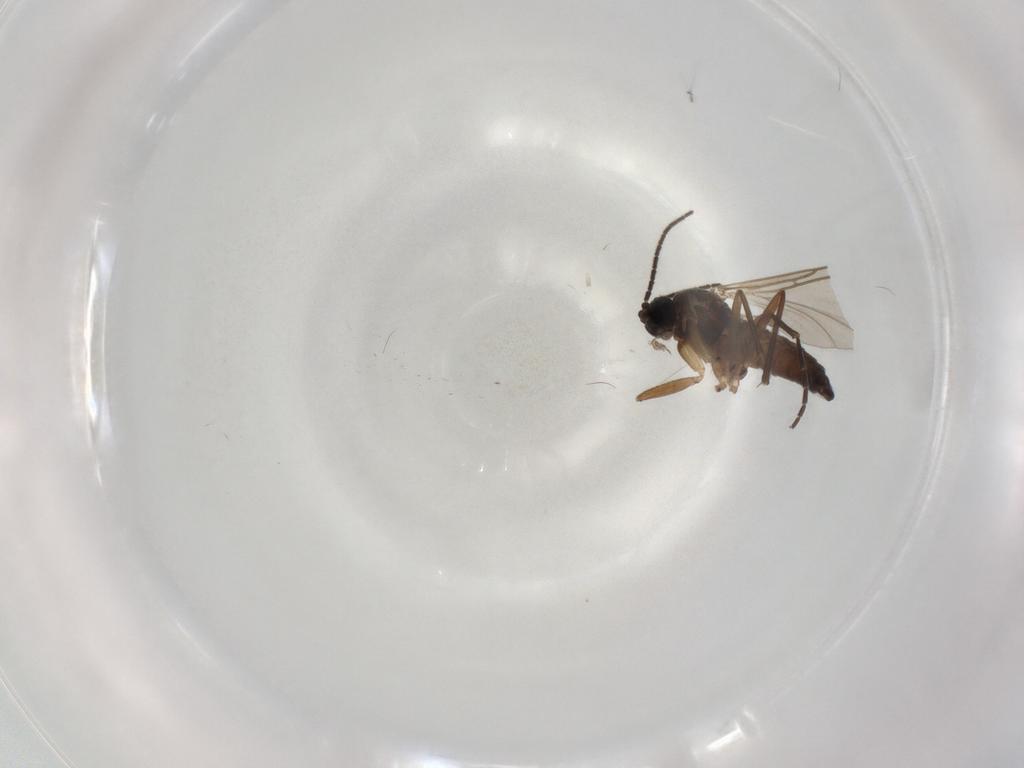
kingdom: Animalia
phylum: Arthropoda
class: Insecta
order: Diptera
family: Sciaridae
